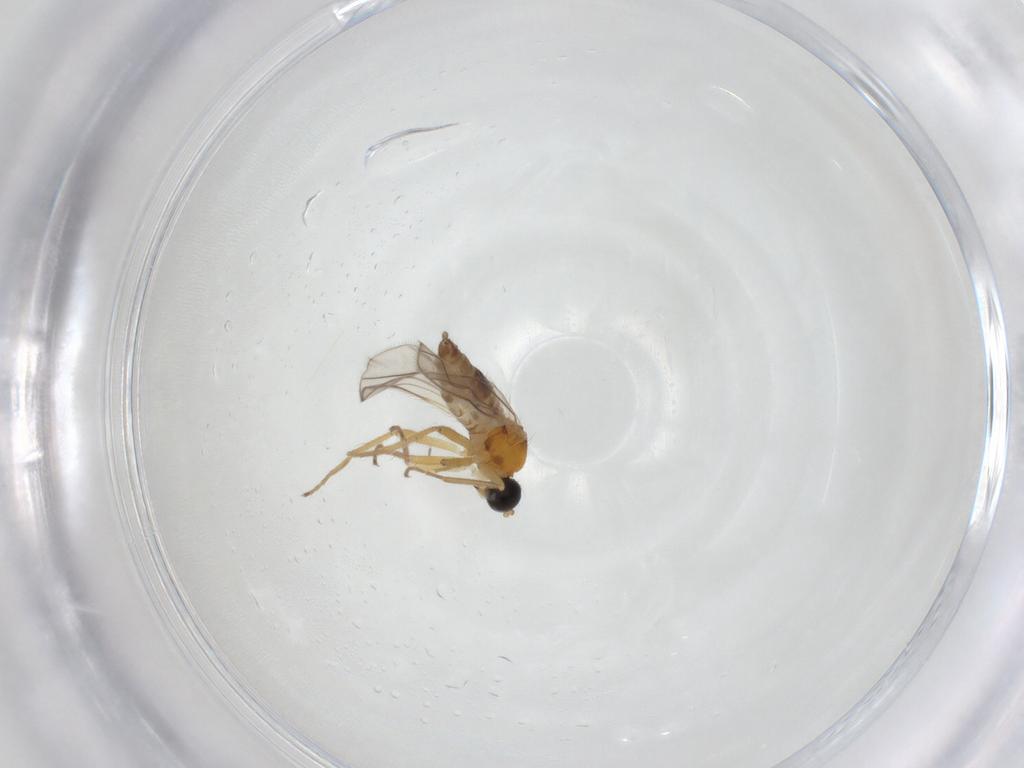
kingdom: Animalia
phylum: Arthropoda
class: Insecta
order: Diptera
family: Hybotidae
